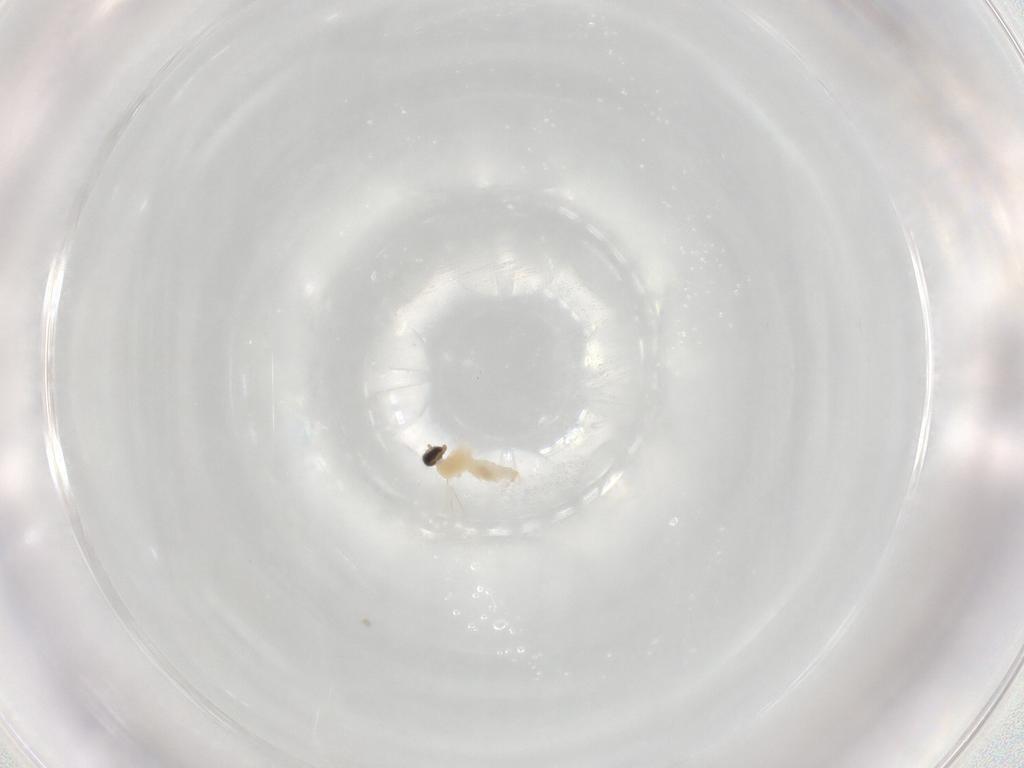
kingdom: Animalia
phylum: Arthropoda
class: Insecta
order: Diptera
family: Cecidomyiidae
